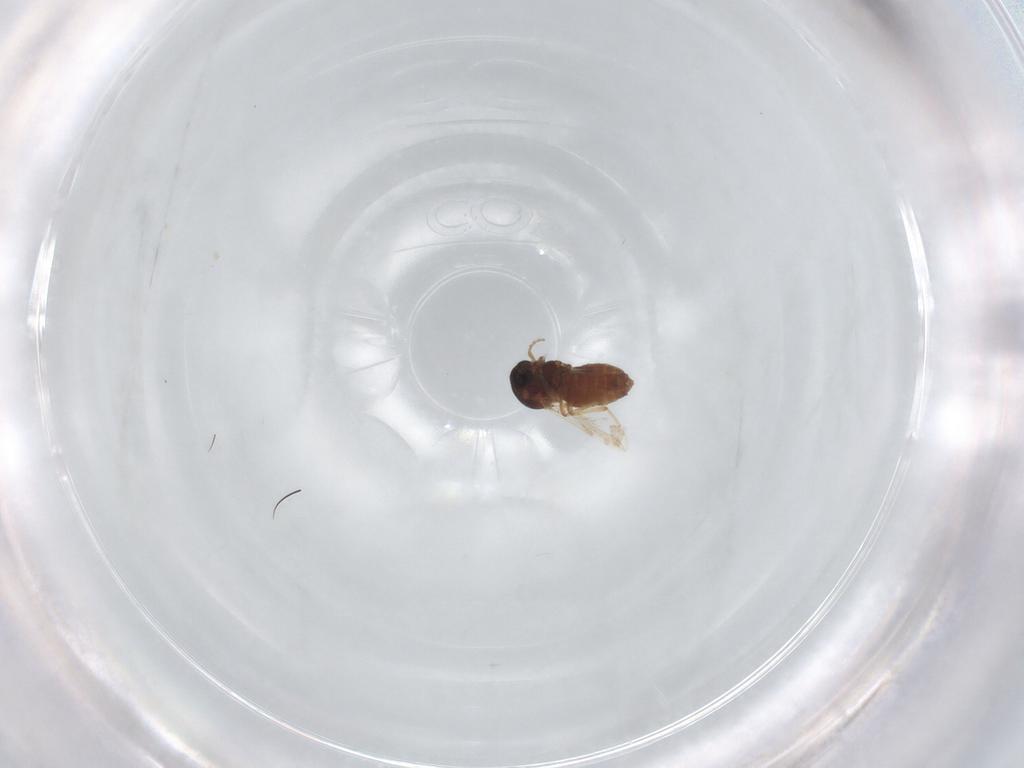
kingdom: Animalia
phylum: Arthropoda
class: Insecta
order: Diptera
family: Ceratopogonidae
